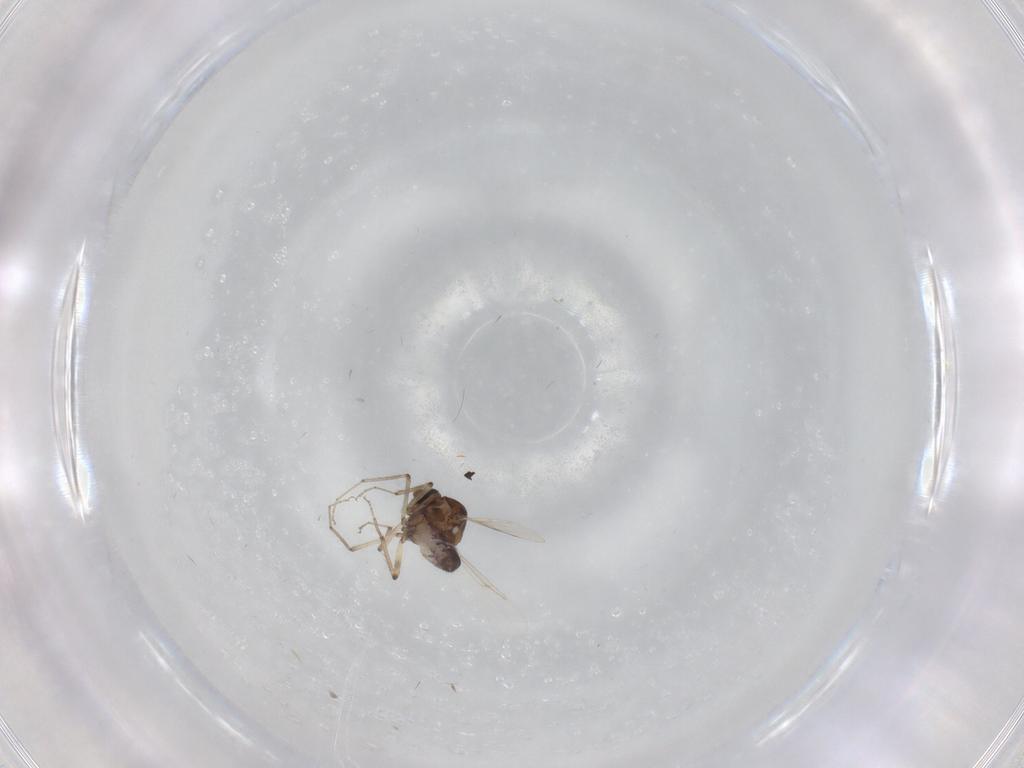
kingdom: Animalia
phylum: Arthropoda
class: Insecta
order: Diptera
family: Ceratopogonidae
